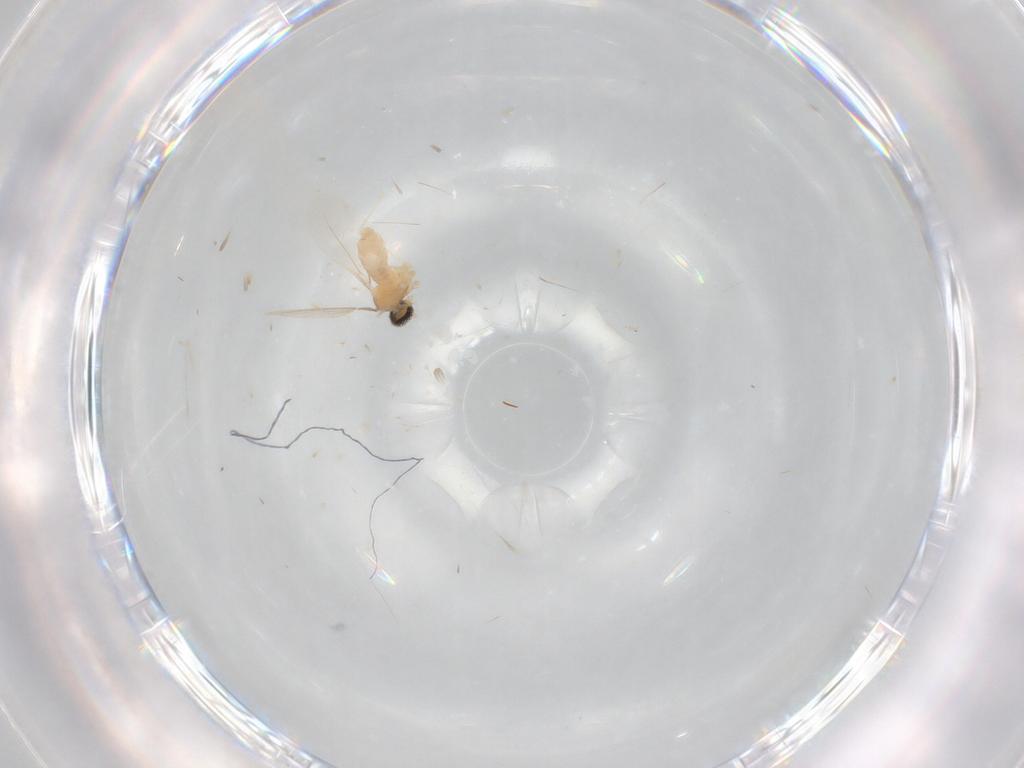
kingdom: Animalia
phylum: Arthropoda
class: Insecta
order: Diptera
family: Cecidomyiidae
